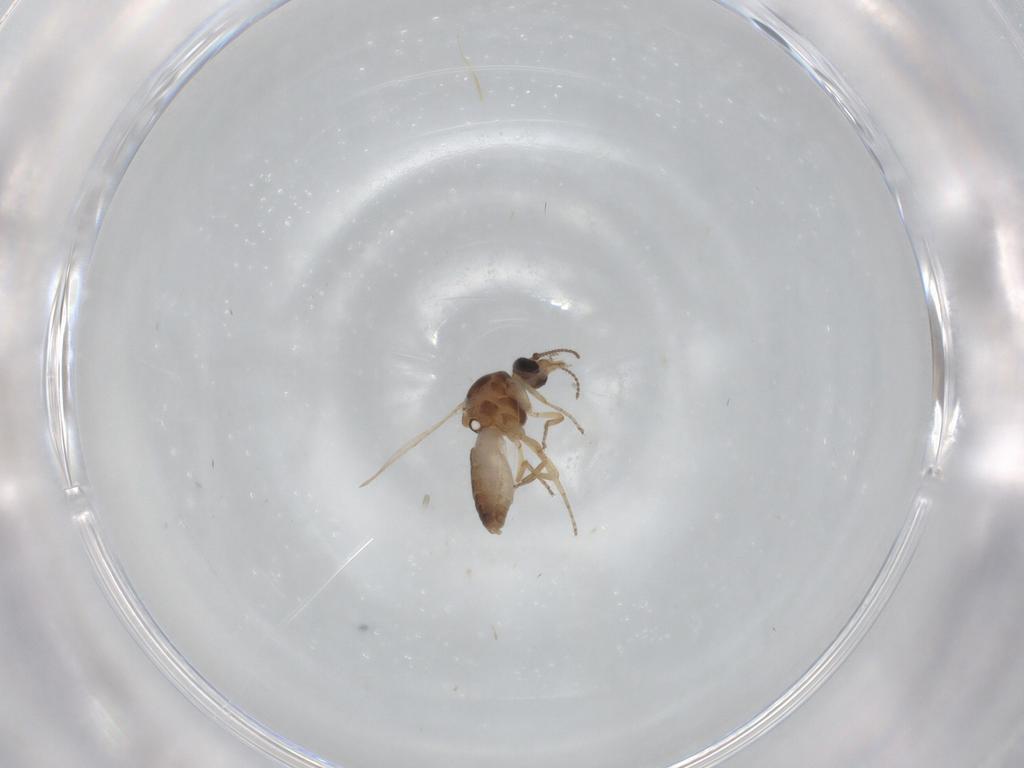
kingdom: Animalia
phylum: Arthropoda
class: Insecta
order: Diptera
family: Ceratopogonidae
